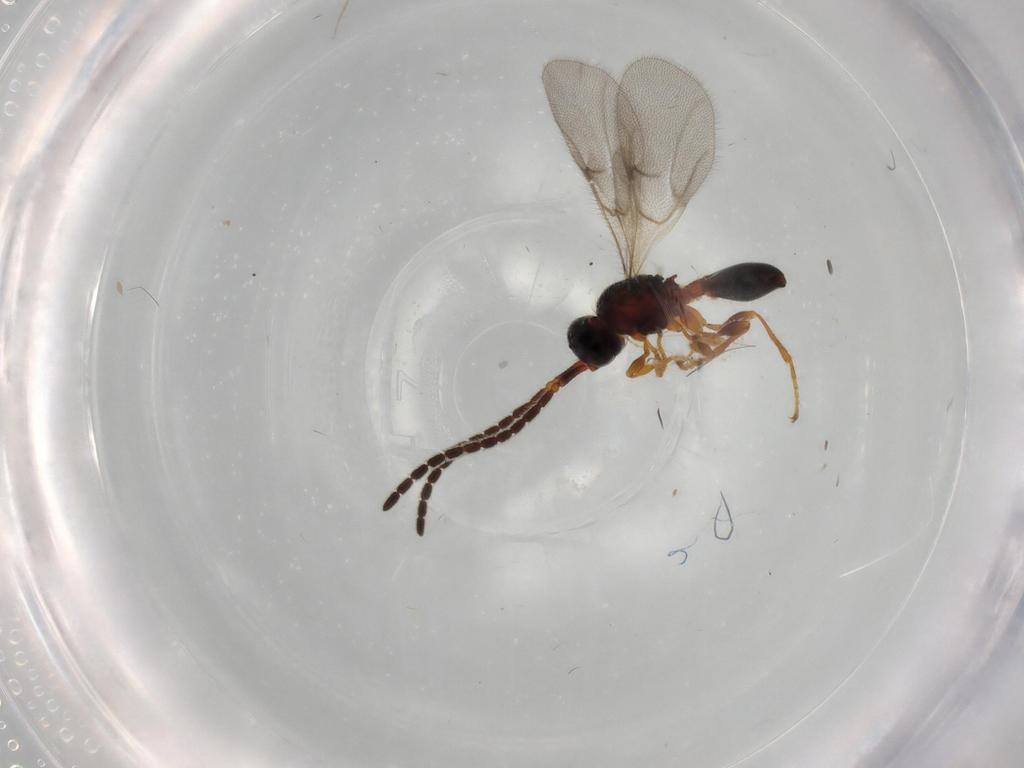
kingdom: Animalia
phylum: Arthropoda
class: Insecta
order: Hymenoptera
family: Diapriidae
